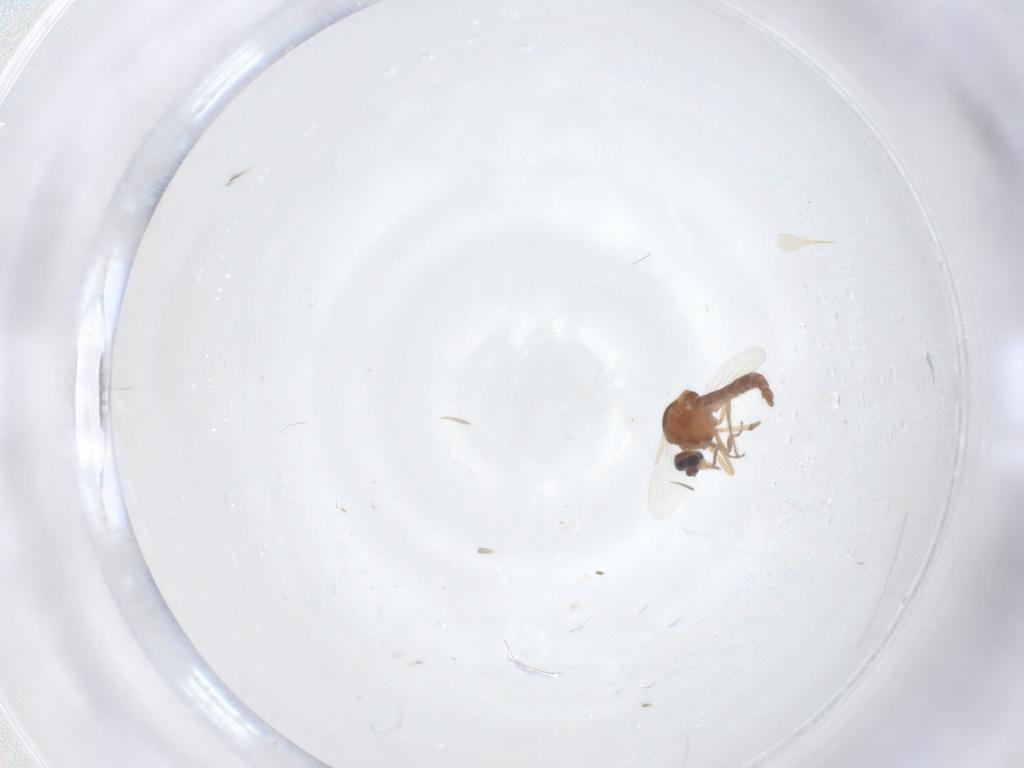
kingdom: Animalia
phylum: Arthropoda
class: Insecta
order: Diptera
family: Ceratopogonidae
